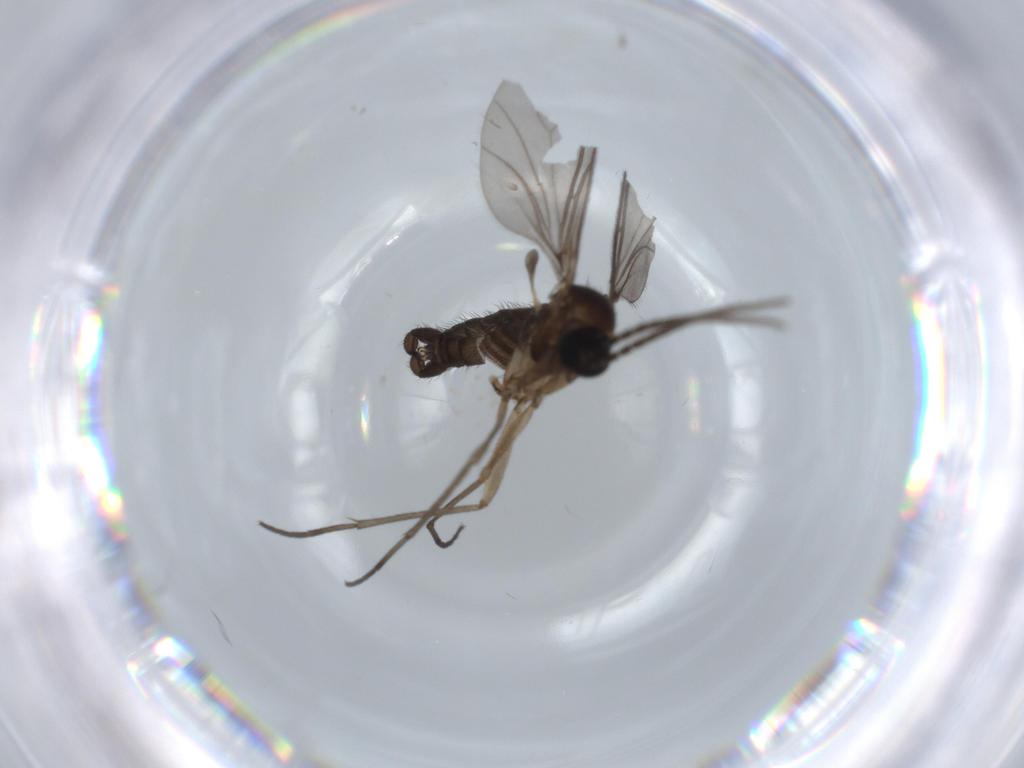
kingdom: Animalia
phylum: Arthropoda
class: Insecta
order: Diptera
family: Sciaridae
